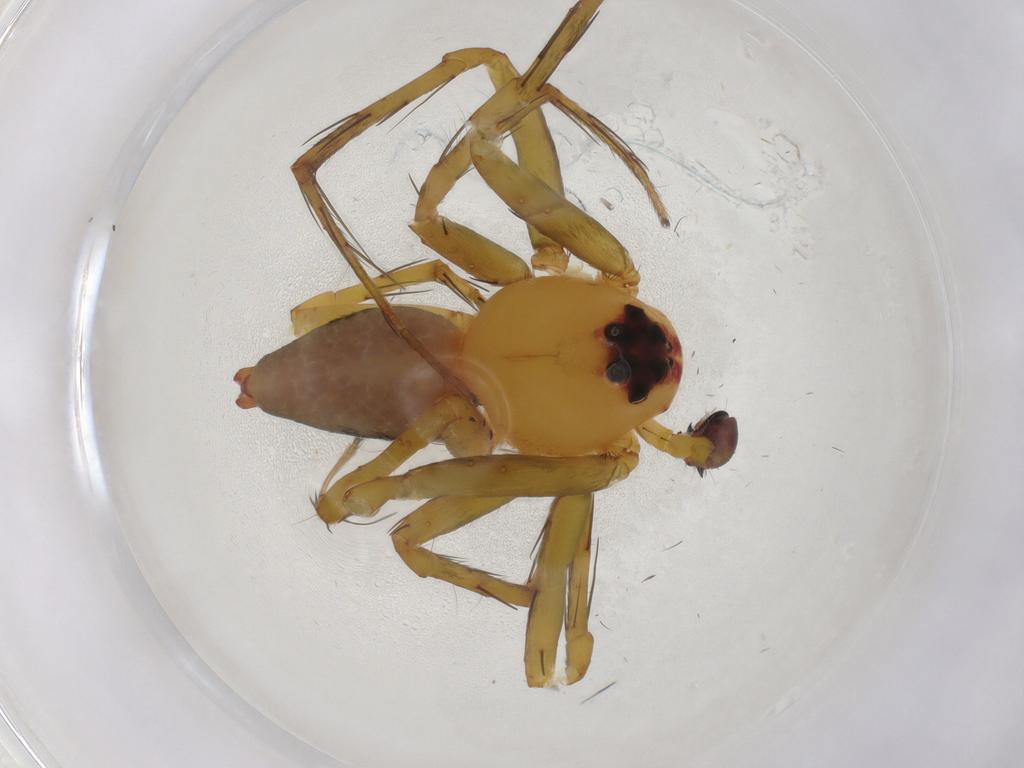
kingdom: Animalia
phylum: Arthropoda
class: Arachnida
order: Araneae
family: Oxyopidae
